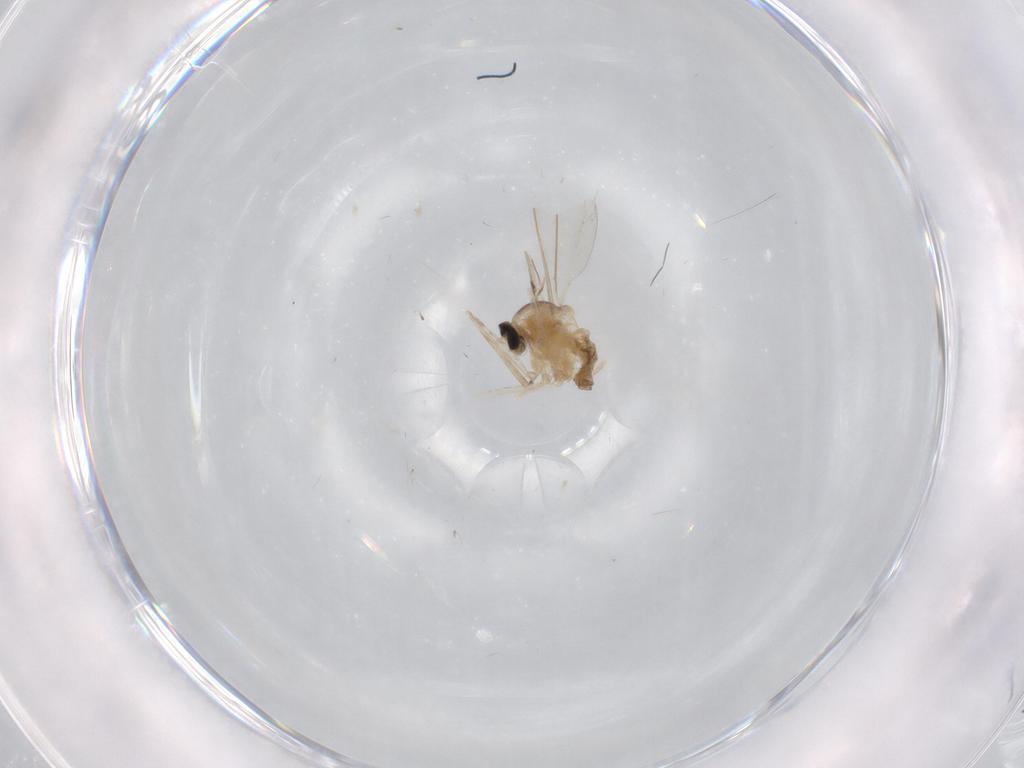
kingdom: Animalia
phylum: Arthropoda
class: Insecta
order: Diptera
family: Cecidomyiidae
